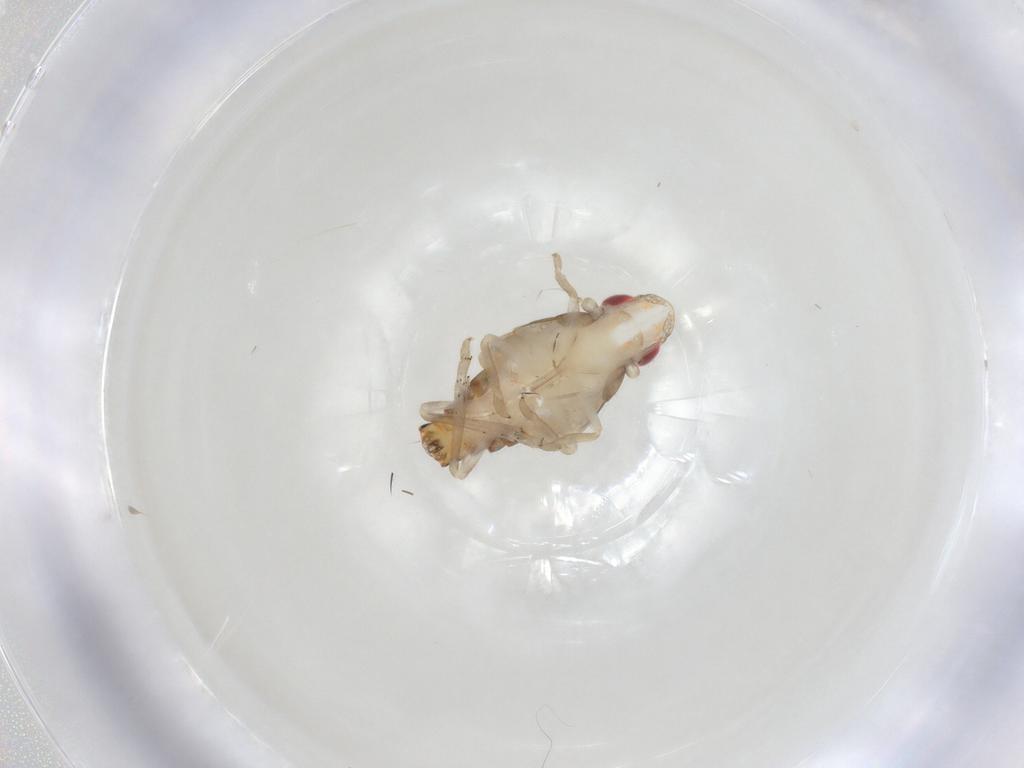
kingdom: Animalia
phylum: Arthropoda
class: Insecta
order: Hemiptera
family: Tropiduchidae
